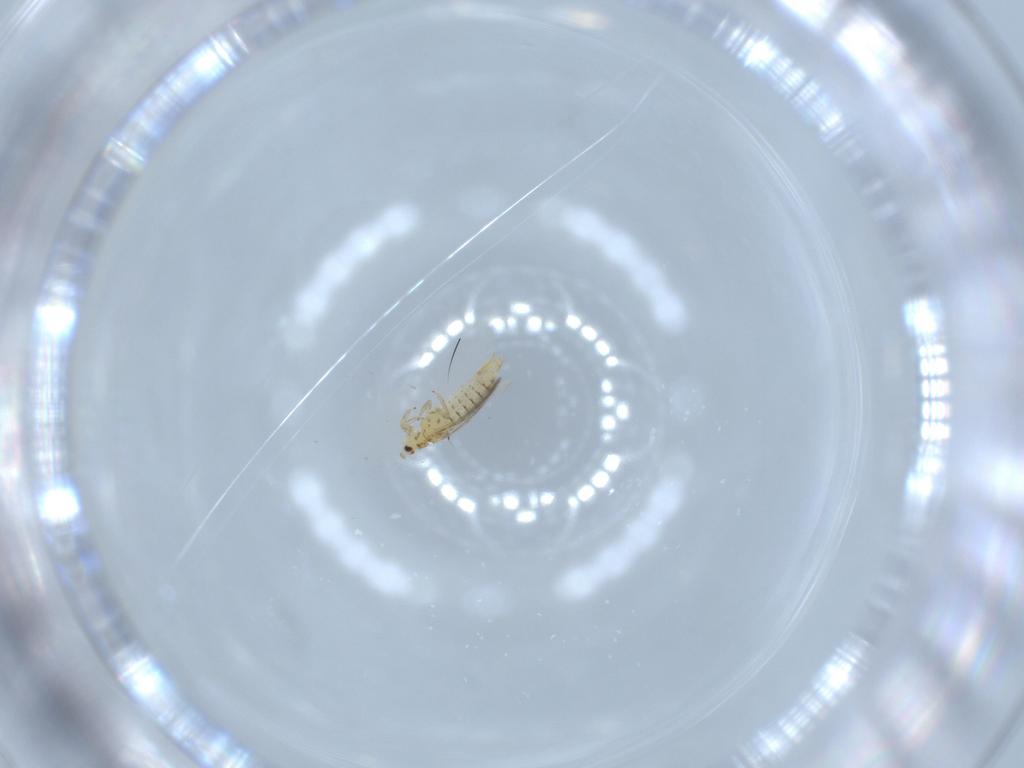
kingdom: Animalia
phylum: Arthropoda
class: Insecta
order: Thysanoptera
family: Thripidae
